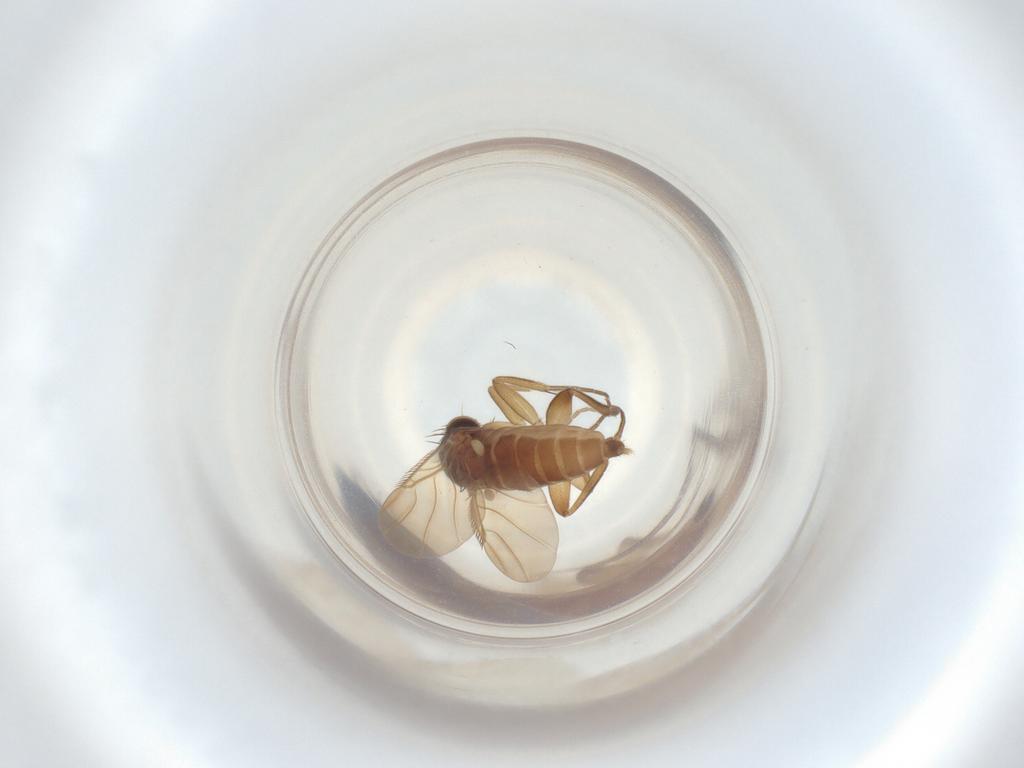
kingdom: Animalia
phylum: Arthropoda
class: Insecta
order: Diptera
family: Phoridae
